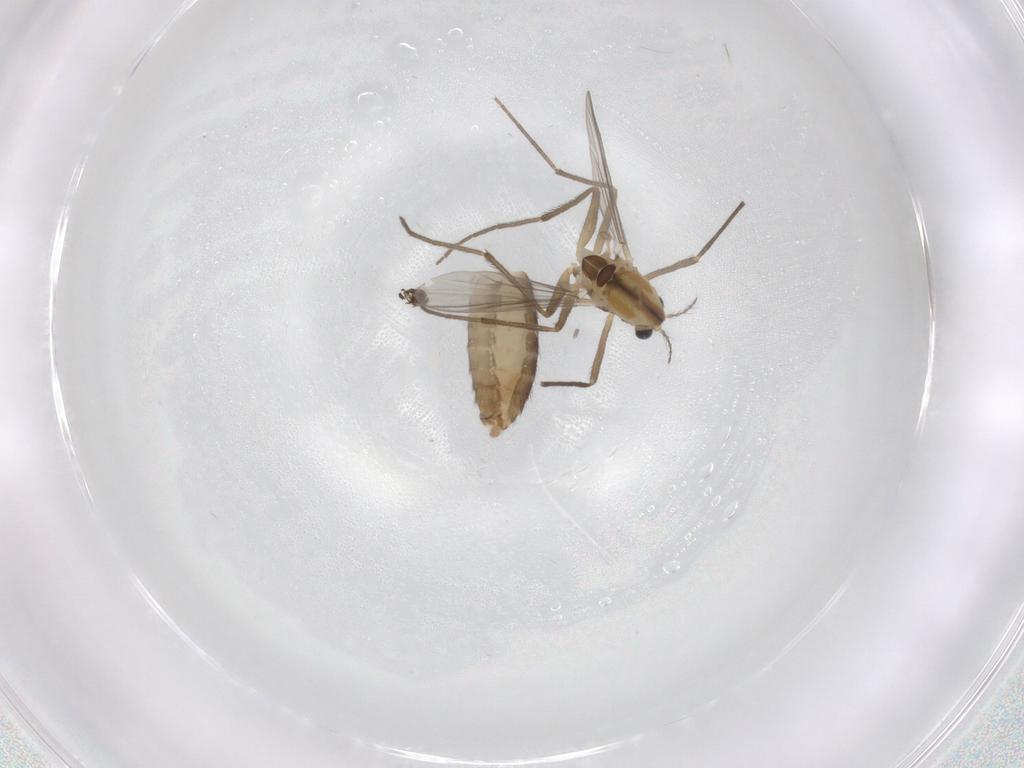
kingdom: Animalia
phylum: Arthropoda
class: Insecta
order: Diptera
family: Chironomidae
